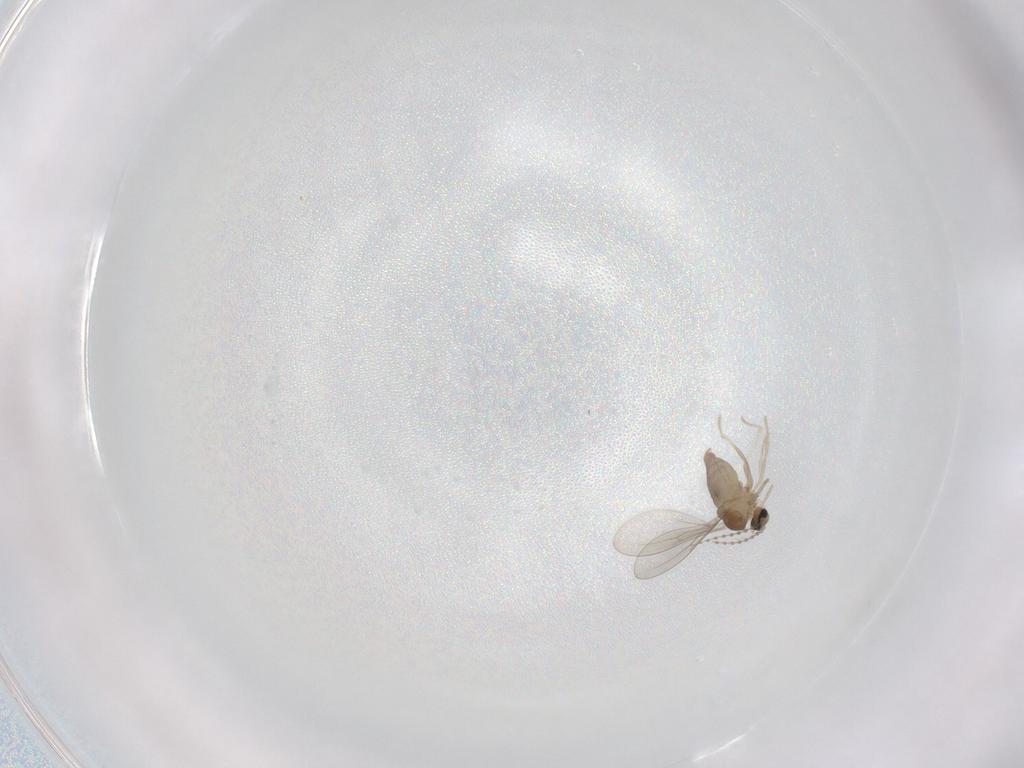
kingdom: Animalia
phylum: Arthropoda
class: Insecta
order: Diptera
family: Cecidomyiidae
